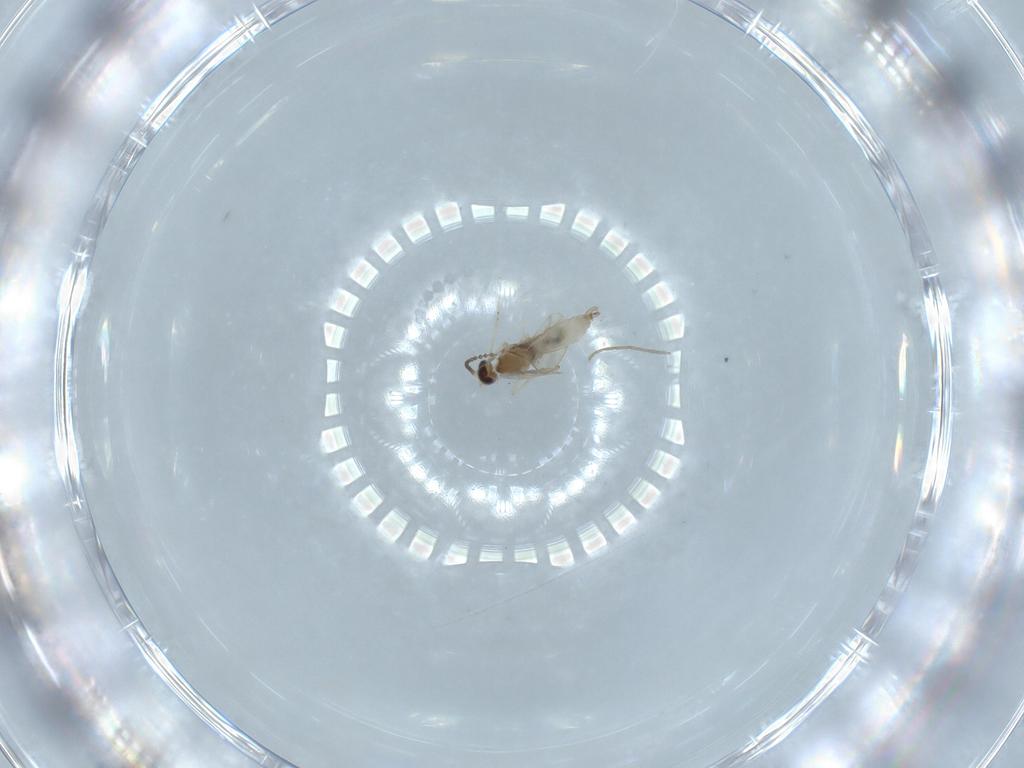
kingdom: Animalia
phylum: Arthropoda
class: Insecta
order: Diptera
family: Cecidomyiidae
